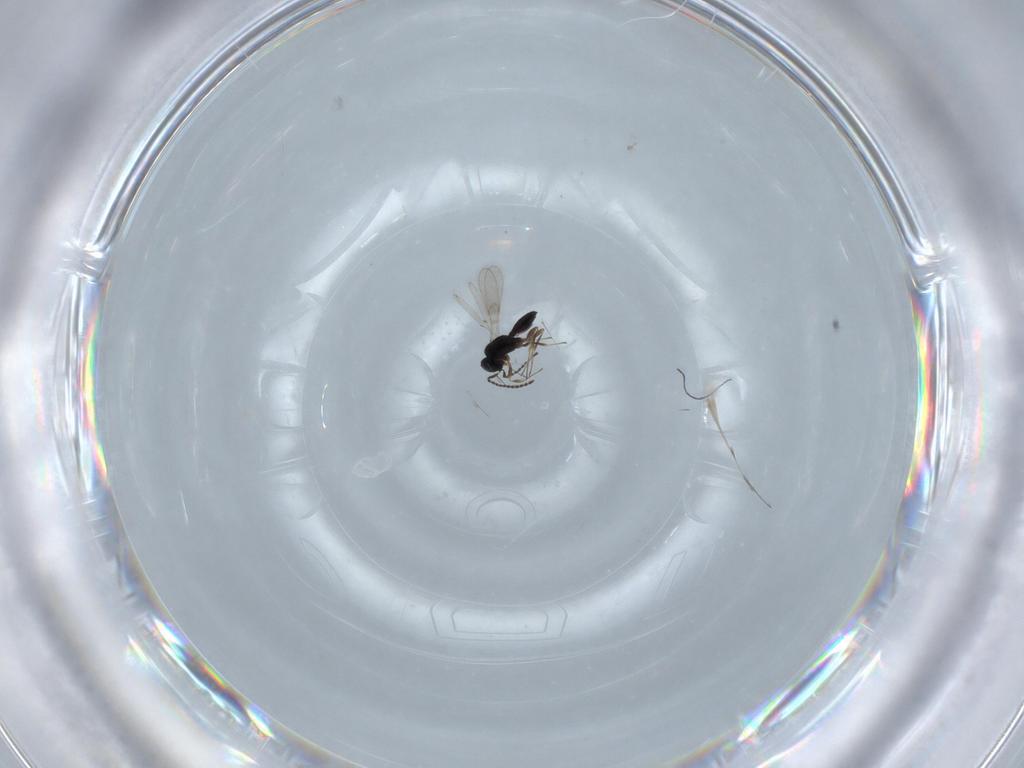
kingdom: Animalia
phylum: Arthropoda
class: Insecta
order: Hymenoptera
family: Scelionidae
